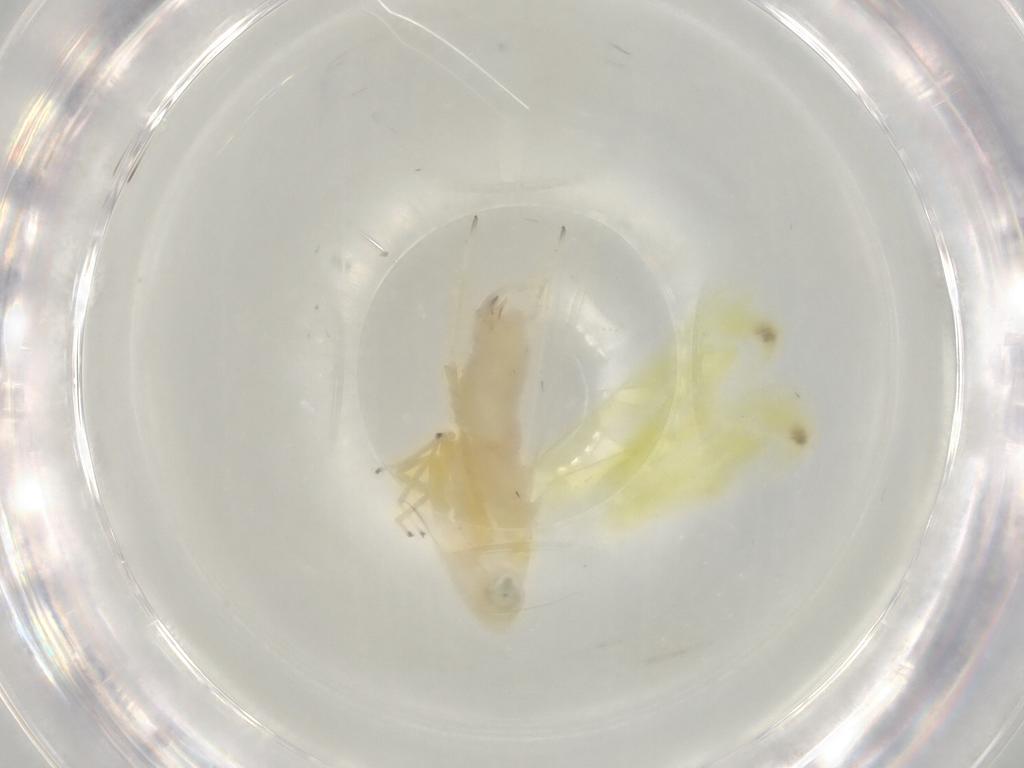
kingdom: Animalia
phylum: Arthropoda
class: Insecta
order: Hemiptera
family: Cicadellidae
